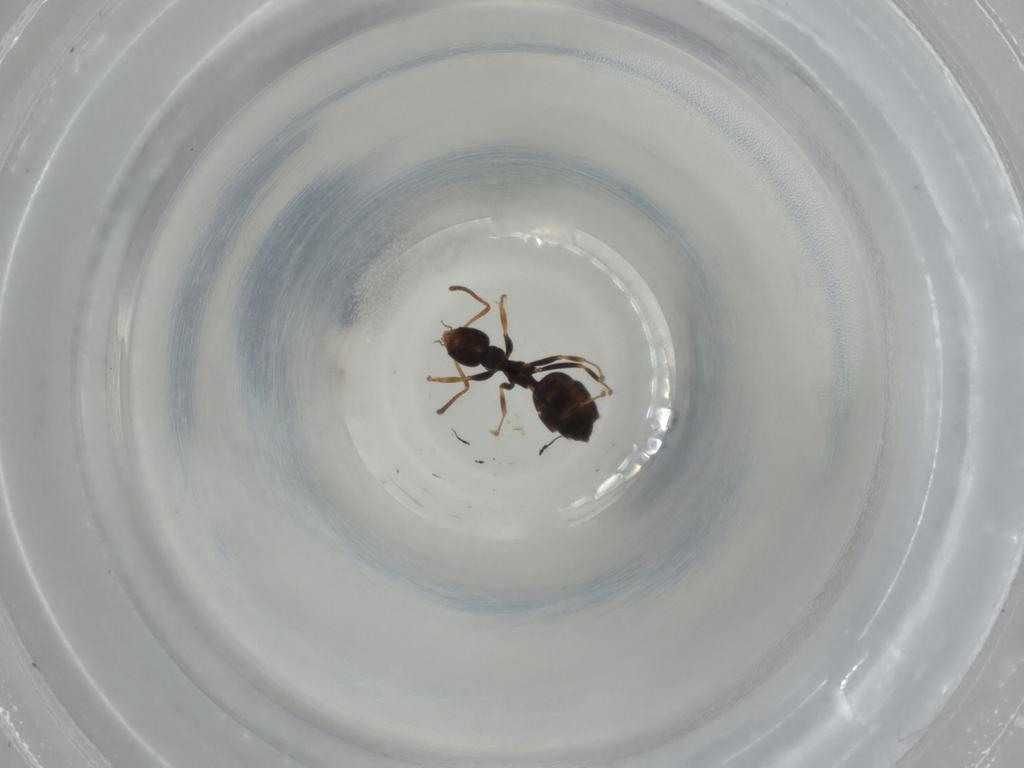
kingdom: Animalia
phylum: Arthropoda
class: Insecta
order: Hymenoptera
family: Formicidae
